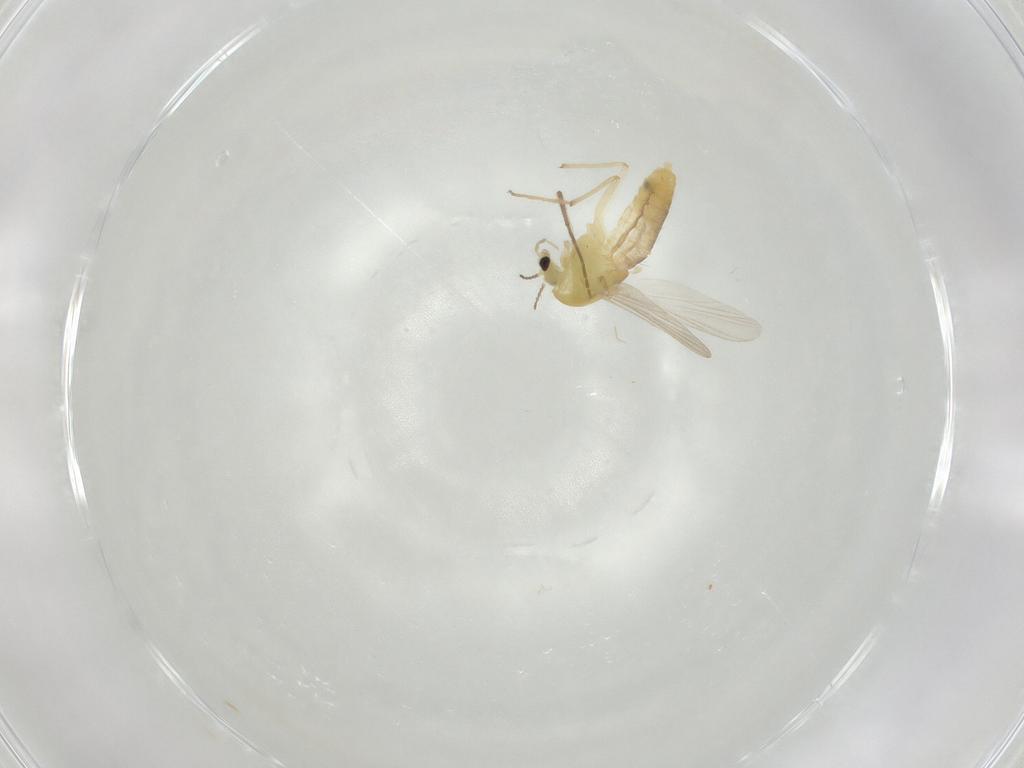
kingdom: Animalia
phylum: Arthropoda
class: Insecta
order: Diptera
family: Chironomidae
